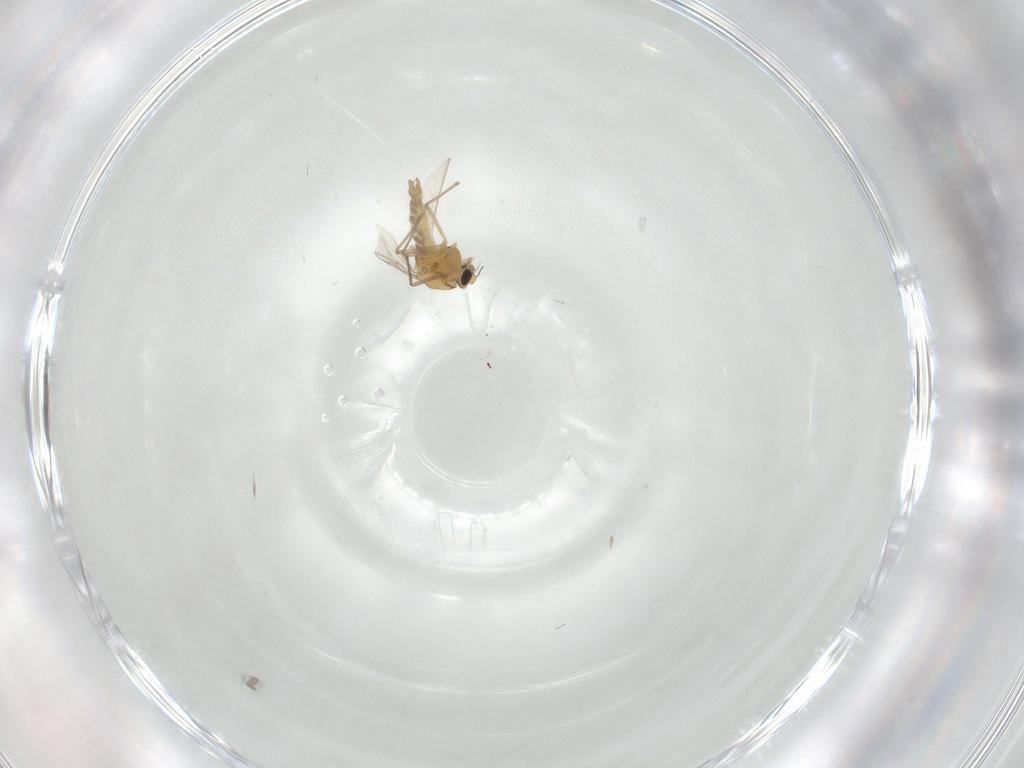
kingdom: Animalia
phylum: Arthropoda
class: Insecta
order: Diptera
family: Chironomidae
